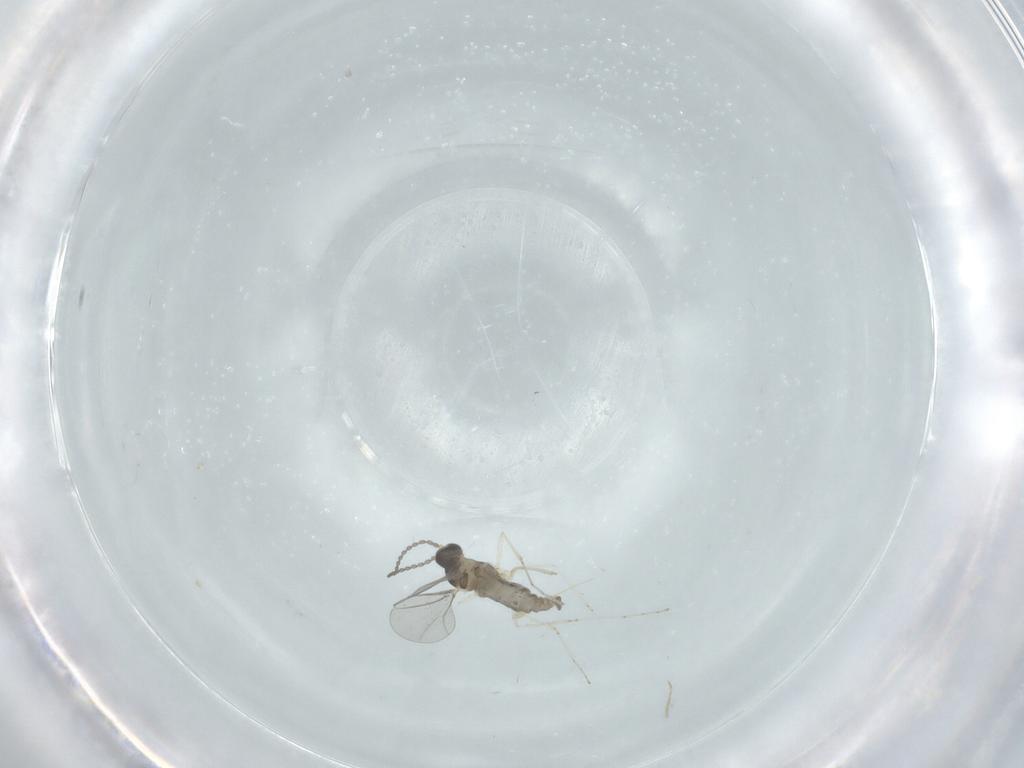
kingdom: Animalia
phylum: Arthropoda
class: Insecta
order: Diptera
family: Cecidomyiidae
